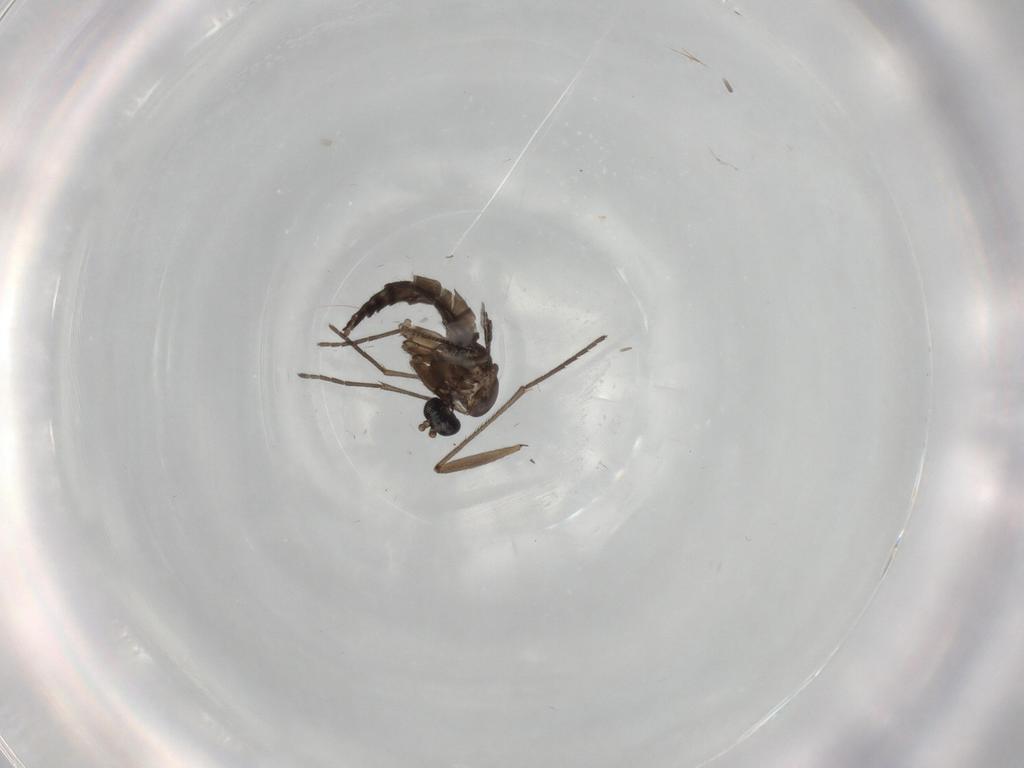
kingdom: Animalia
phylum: Arthropoda
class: Insecta
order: Diptera
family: Sciaridae
